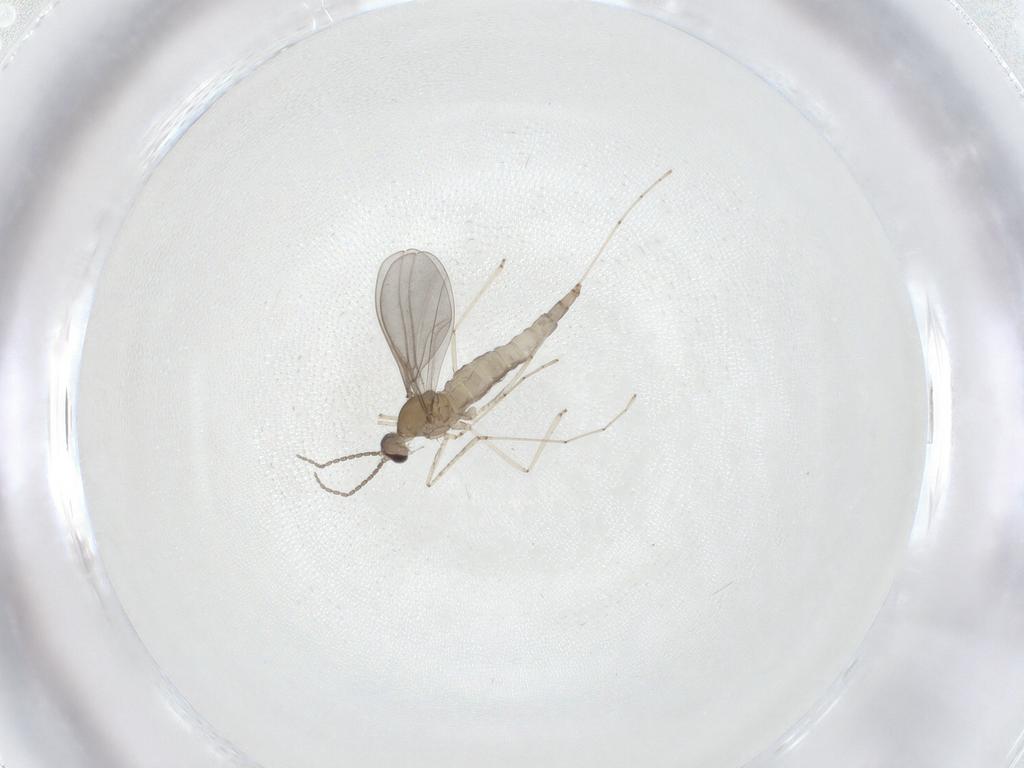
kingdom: Animalia
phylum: Arthropoda
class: Insecta
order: Diptera
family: Cecidomyiidae
